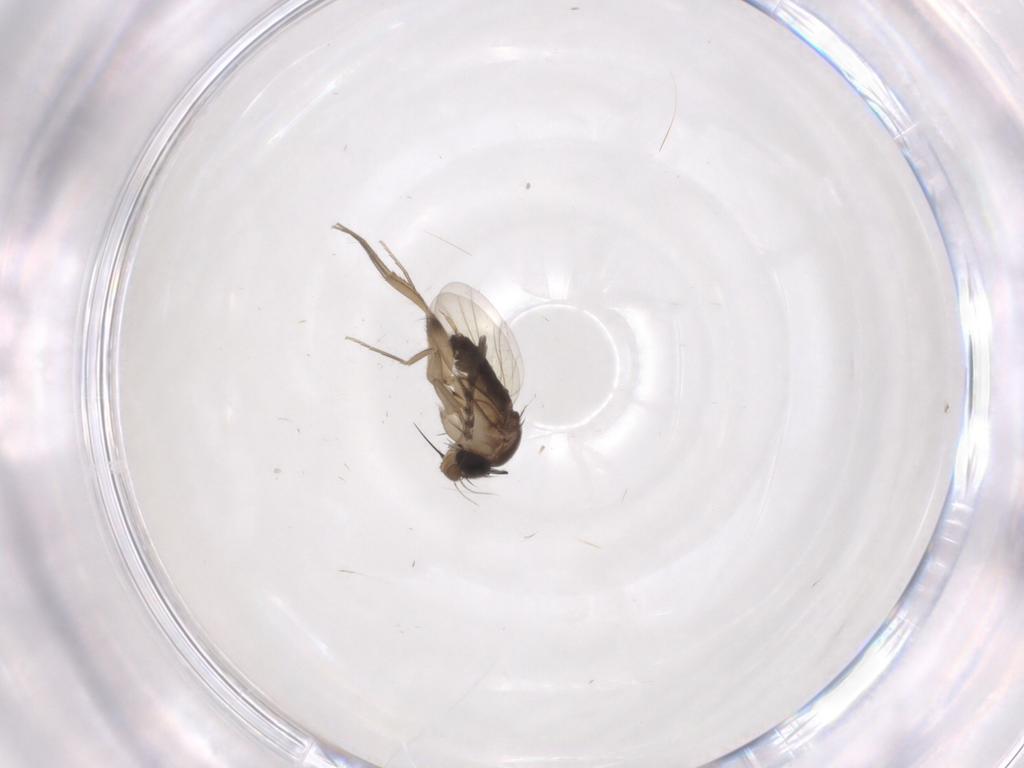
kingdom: Animalia
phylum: Arthropoda
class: Insecta
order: Diptera
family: Phoridae
